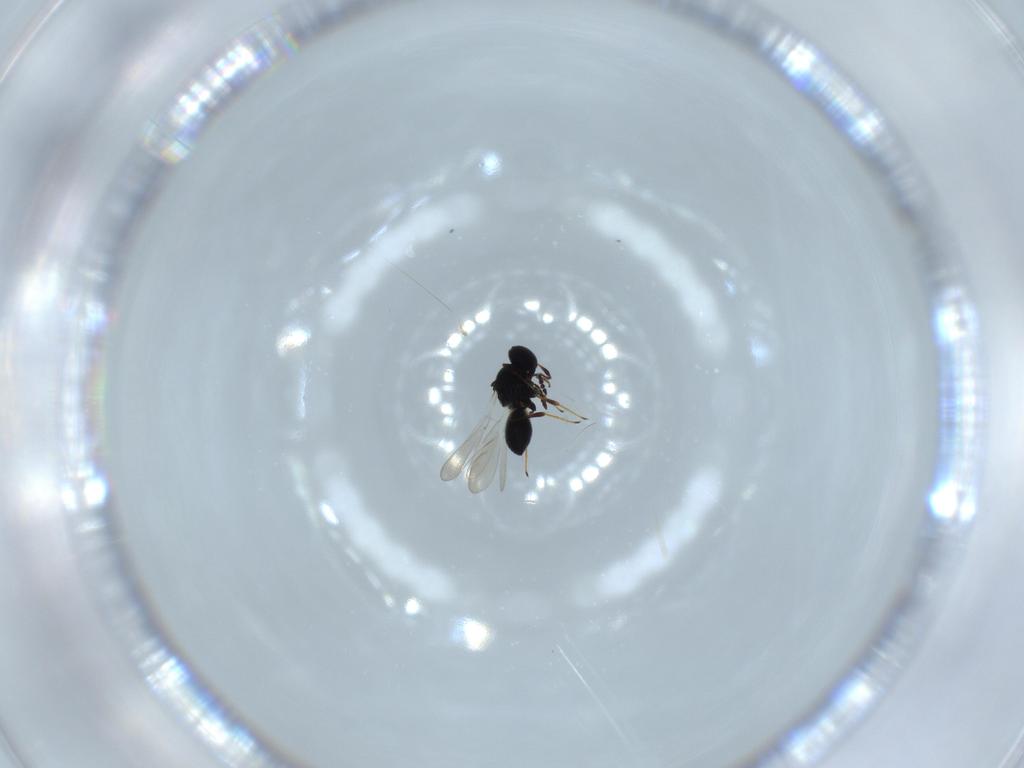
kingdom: Animalia
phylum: Arthropoda
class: Insecta
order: Hymenoptera
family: Platygastridae
